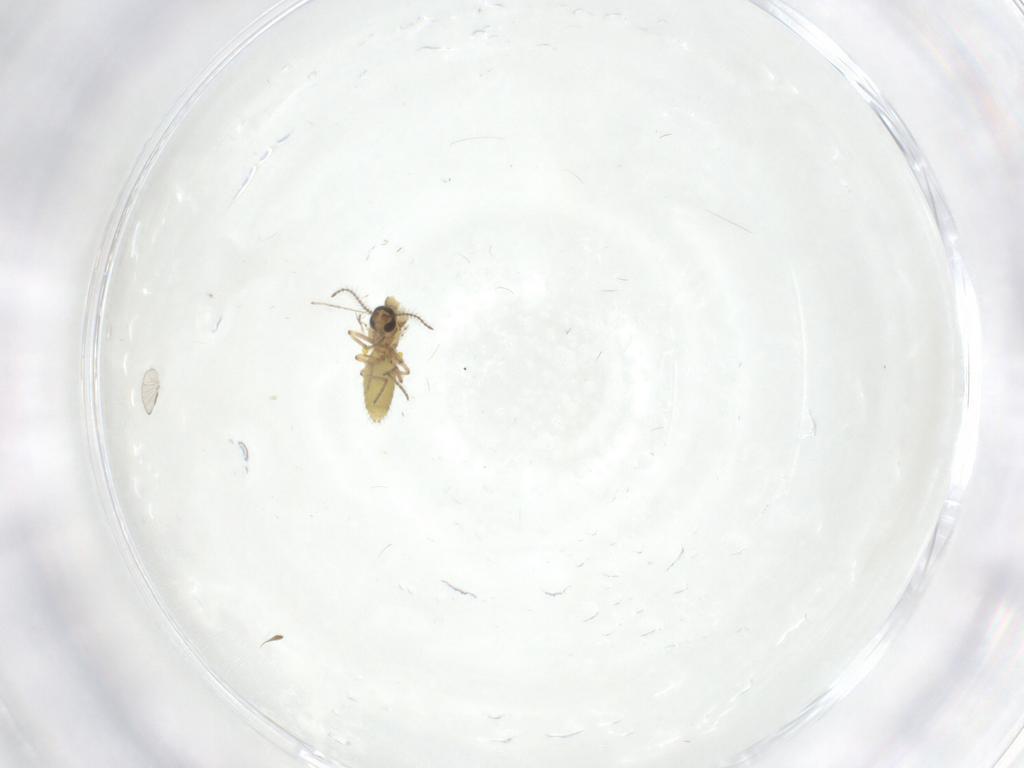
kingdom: Animalia
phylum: Arthropoda
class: Insecta
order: Diptera
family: Ceratopogonidae
